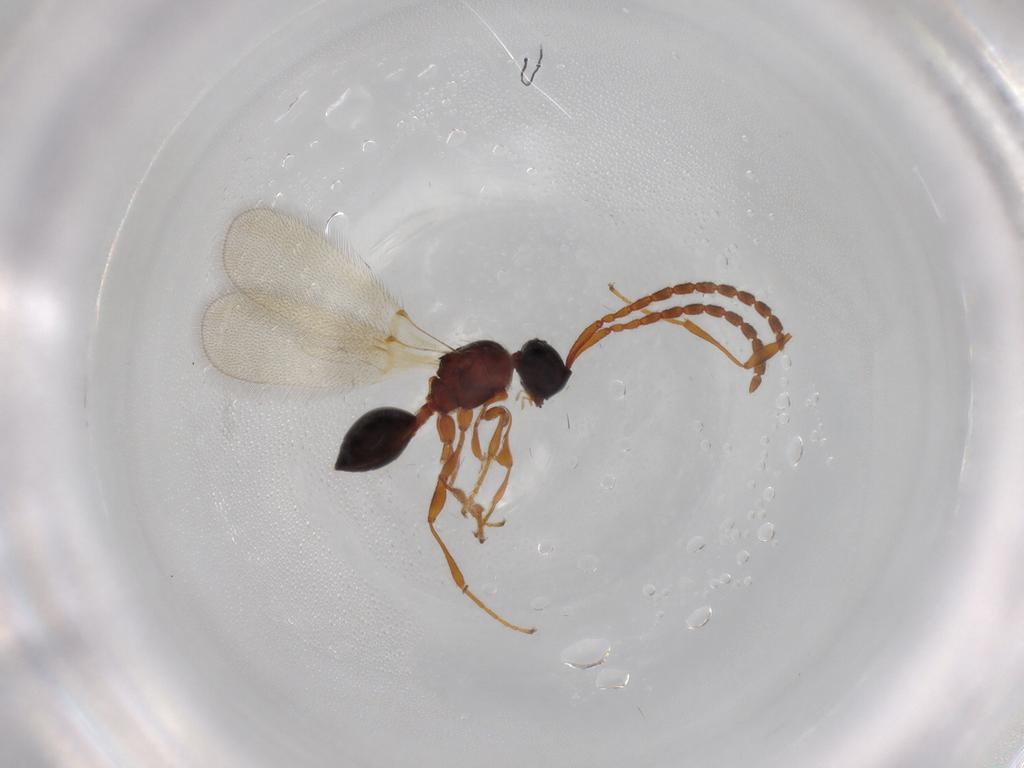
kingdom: Animalia
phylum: Arthropoda
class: Insecta
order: Hymenoptera
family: Diapriidae
